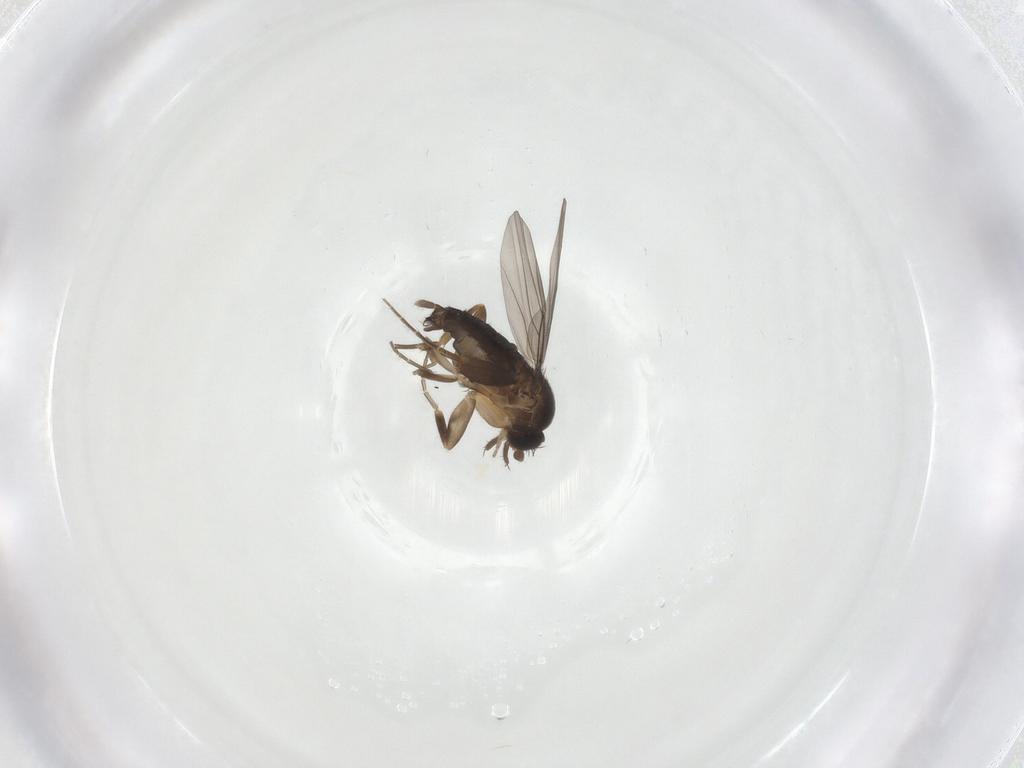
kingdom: Animalia
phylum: Arthropoda
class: Insecta
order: Diptera
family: Phoridae
